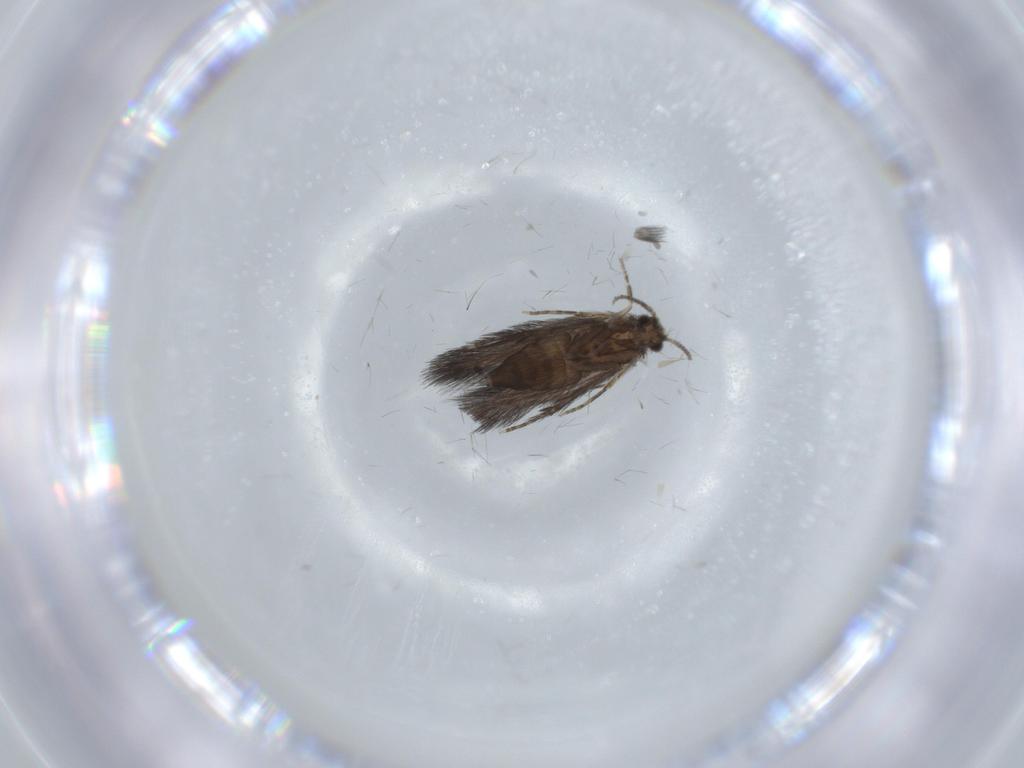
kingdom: Animalia
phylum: Arthropoda
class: Insecta
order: Trichoptera
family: Hydroptilidae
